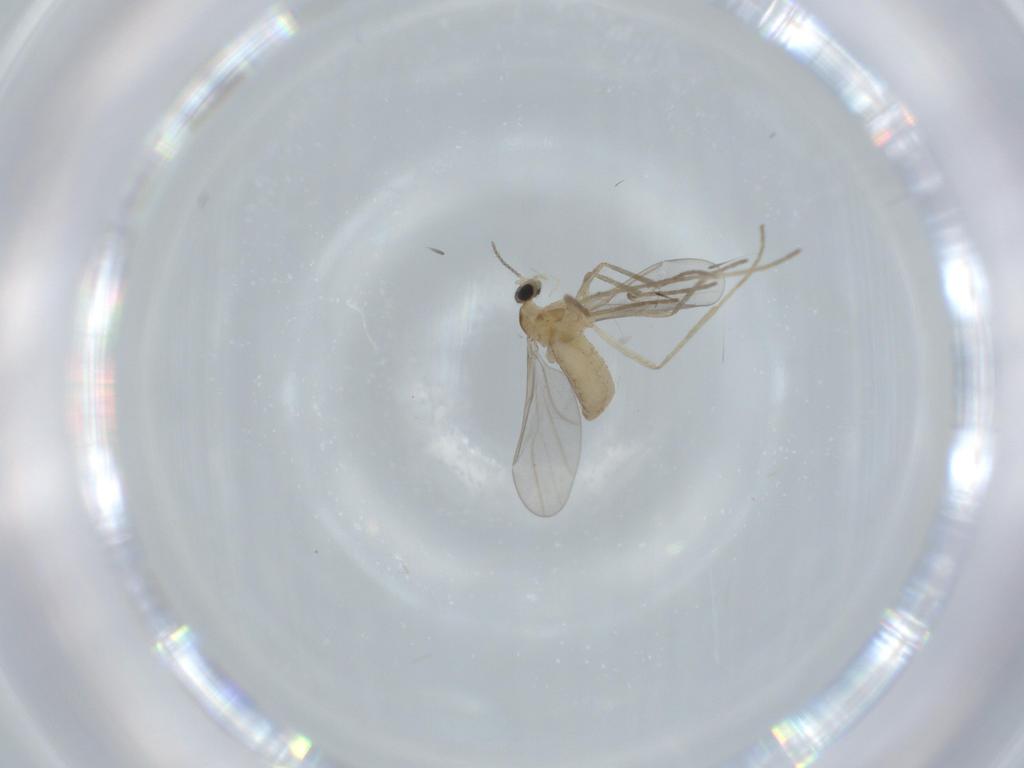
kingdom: Animalia
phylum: Arthropoda
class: Insecta
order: Diptera
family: Cecidomyiidae
